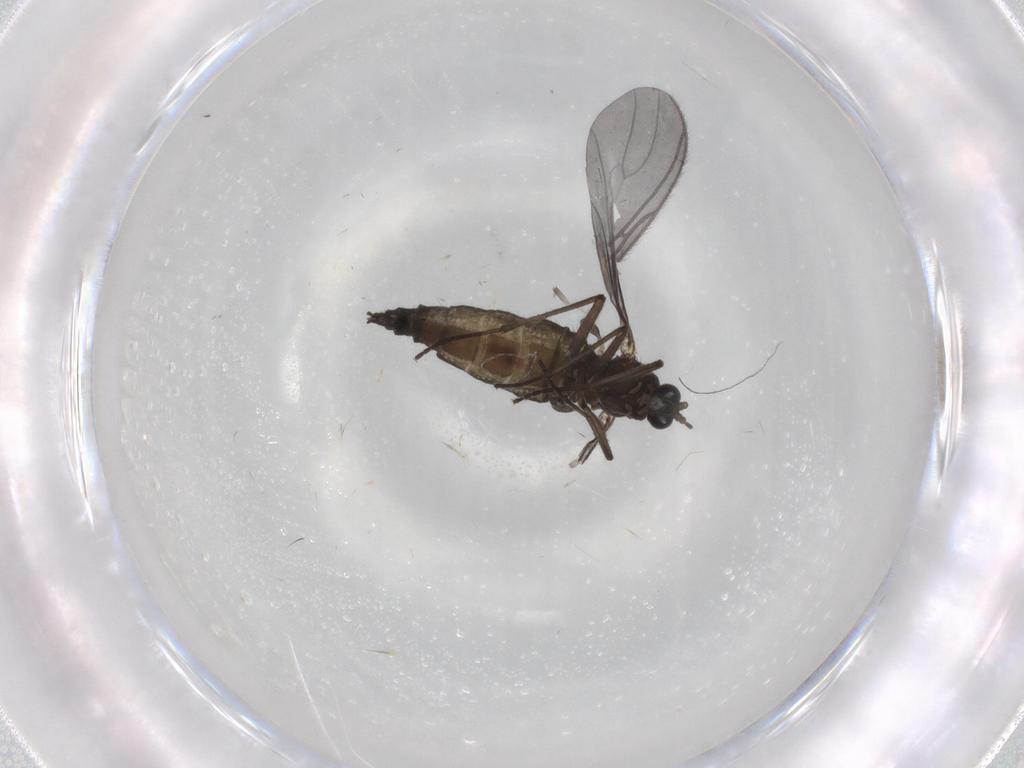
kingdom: Animalia
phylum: Arthropoda
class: Insecta
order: Diptera
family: Sciaridae
